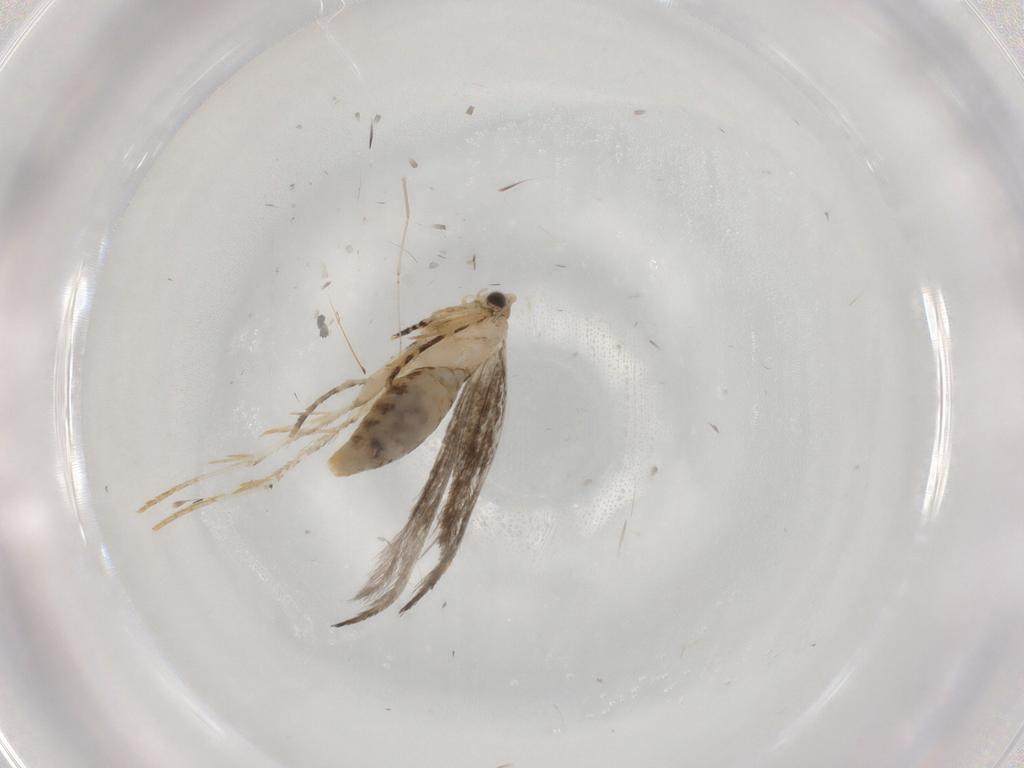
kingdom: Animalia
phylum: Arthropoda
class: Insecta
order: Lepidoptera
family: Tineidae
